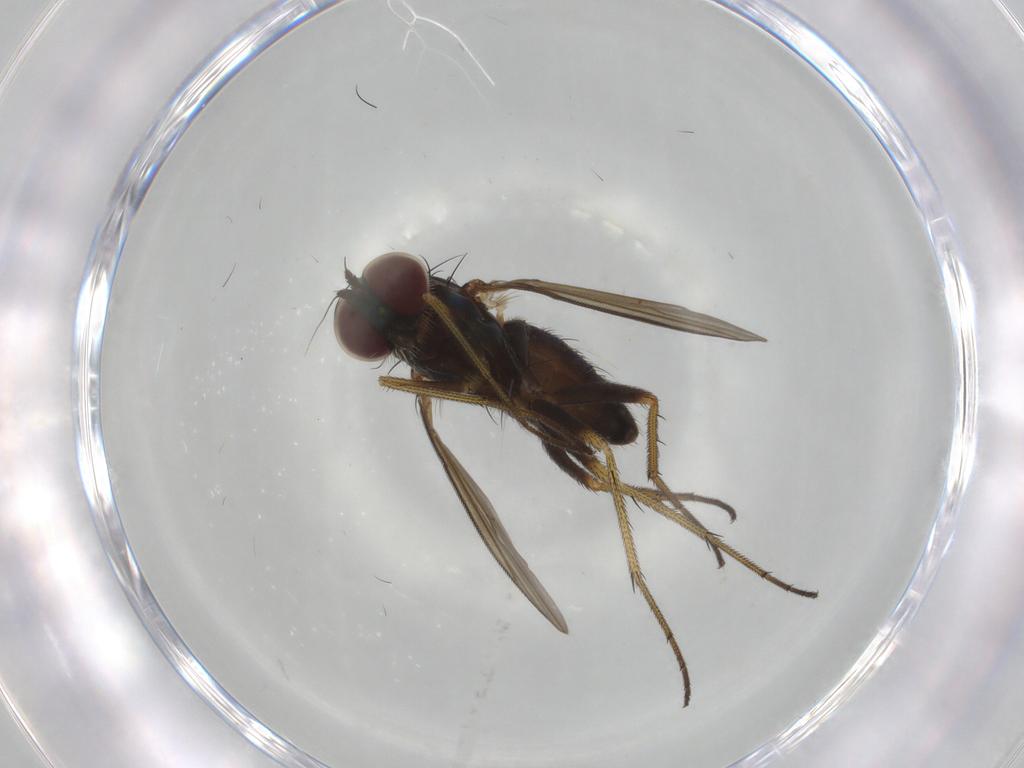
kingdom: Animalia
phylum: Arthropoda
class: Insecta
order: Diptera
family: Dolichopodidae
